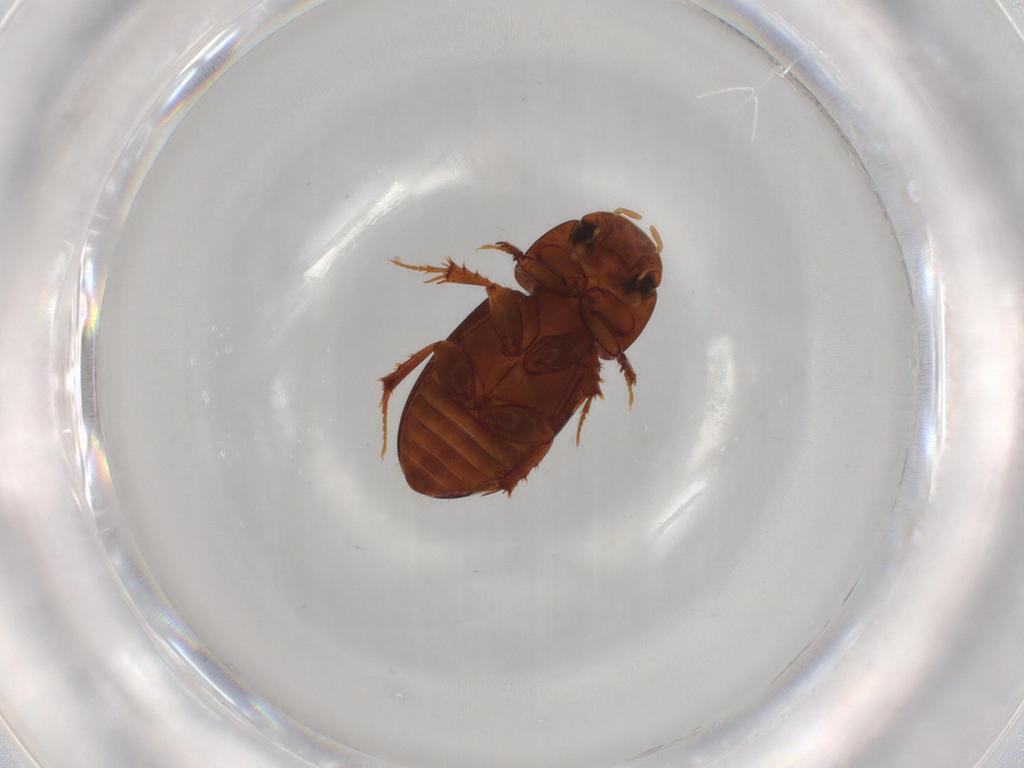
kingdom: Animalia
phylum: Arthropoda
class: Insecta
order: Coleoptera
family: Scarabaeidae
